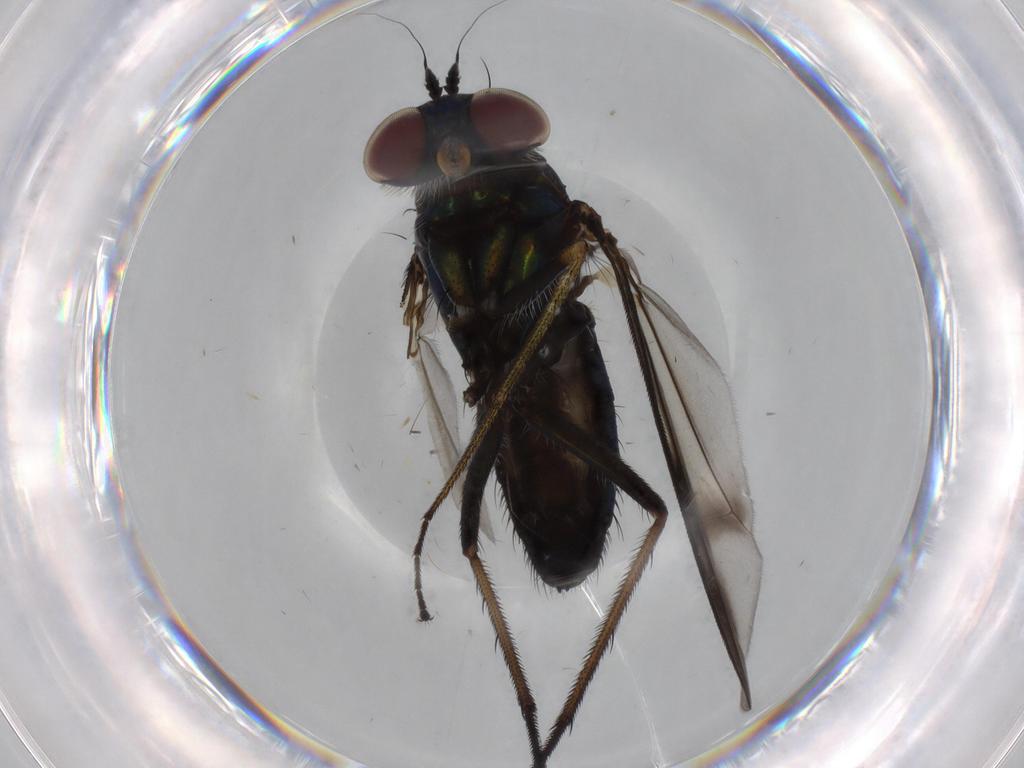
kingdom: Animalia
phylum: Arthropoda
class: Insecta
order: Diptera
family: Dolichopodidae
